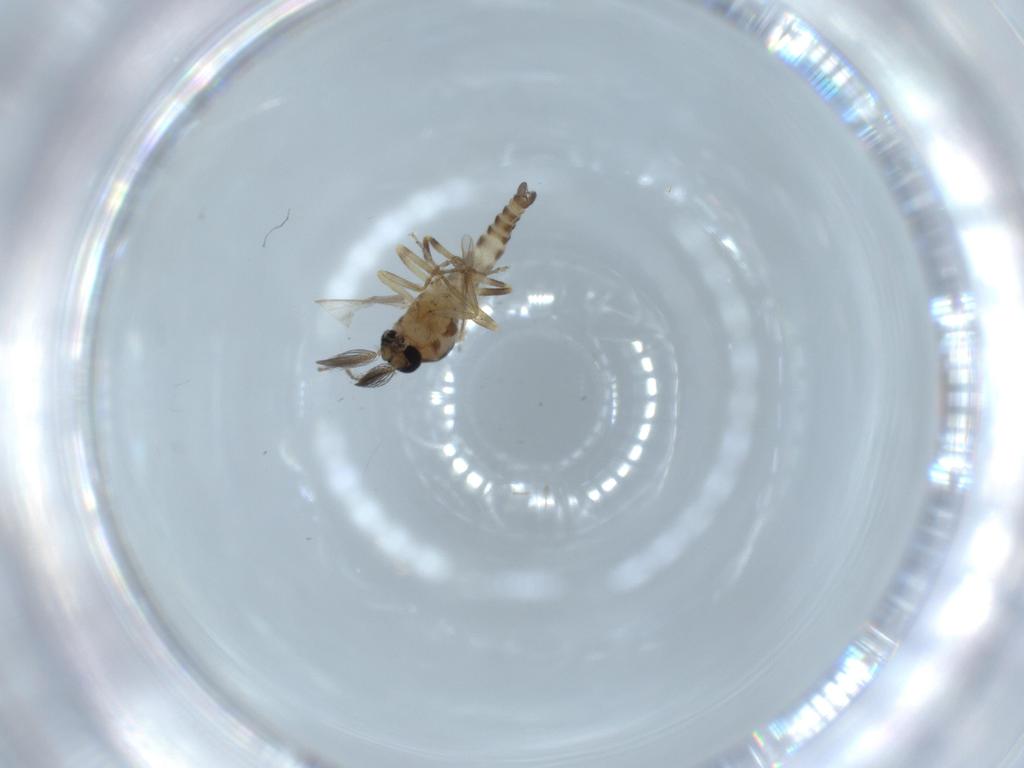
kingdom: Animalia
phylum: Arthropoda
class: Insecta
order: Diptera
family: Ceratopogonidae
